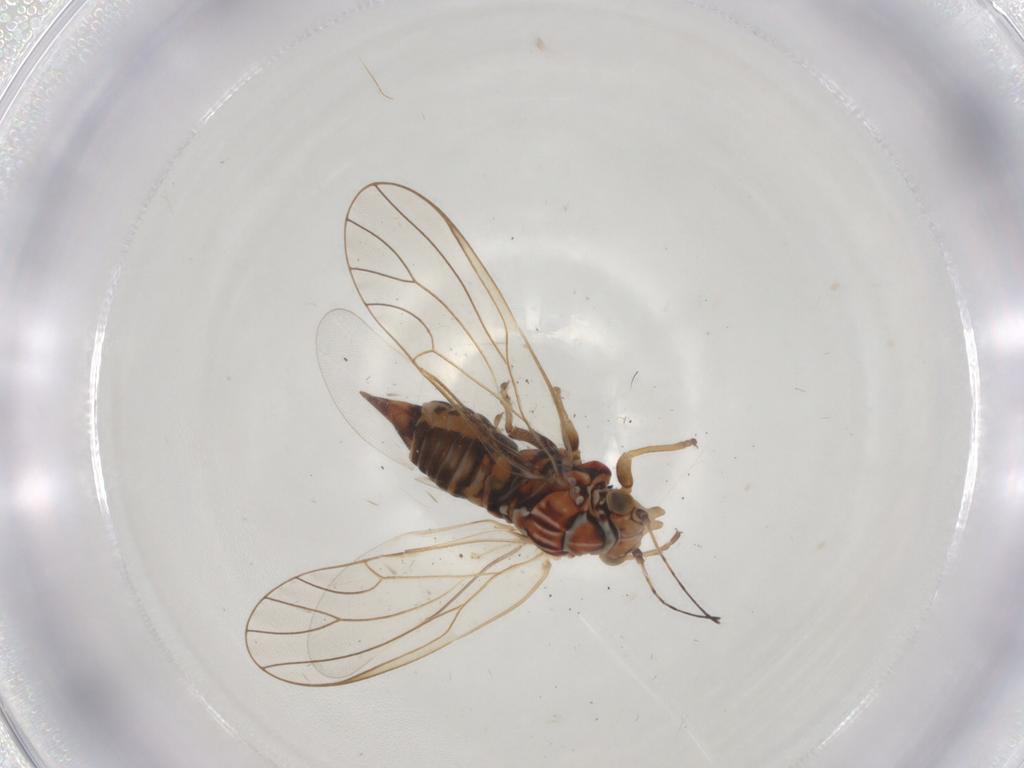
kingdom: Animalia
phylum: Arthropoda
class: Insecta
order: Hemiptera
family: Psyllidae
